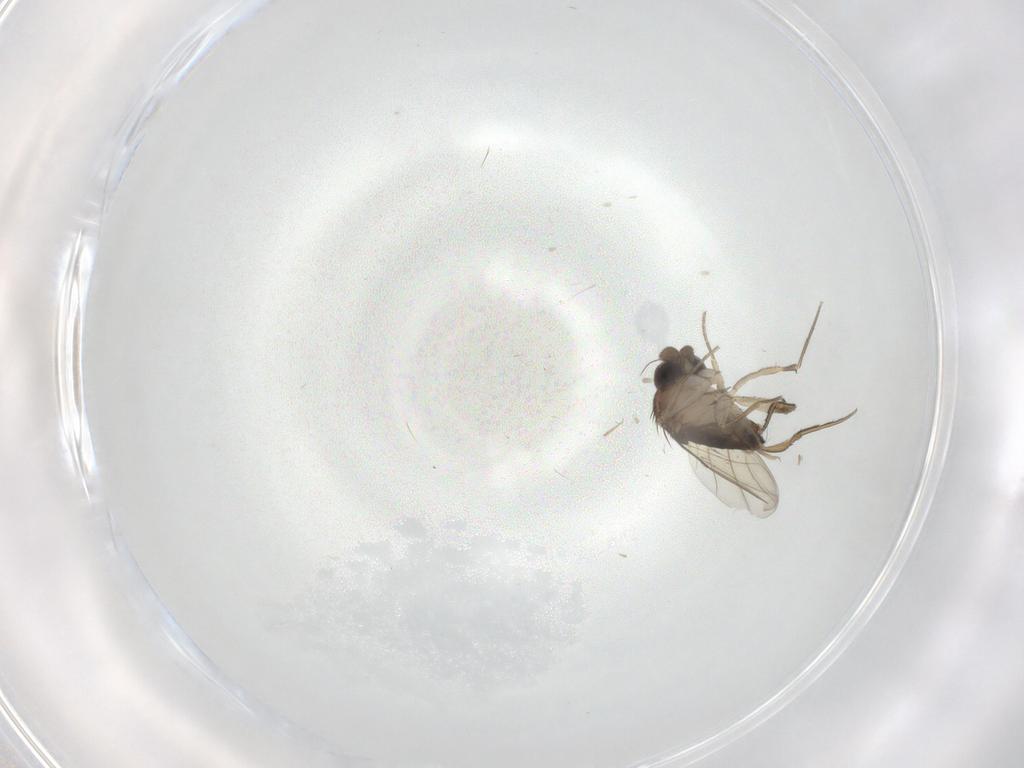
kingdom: Animalia
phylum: Arthropoda
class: Insecta
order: Diptera
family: Phoridae
